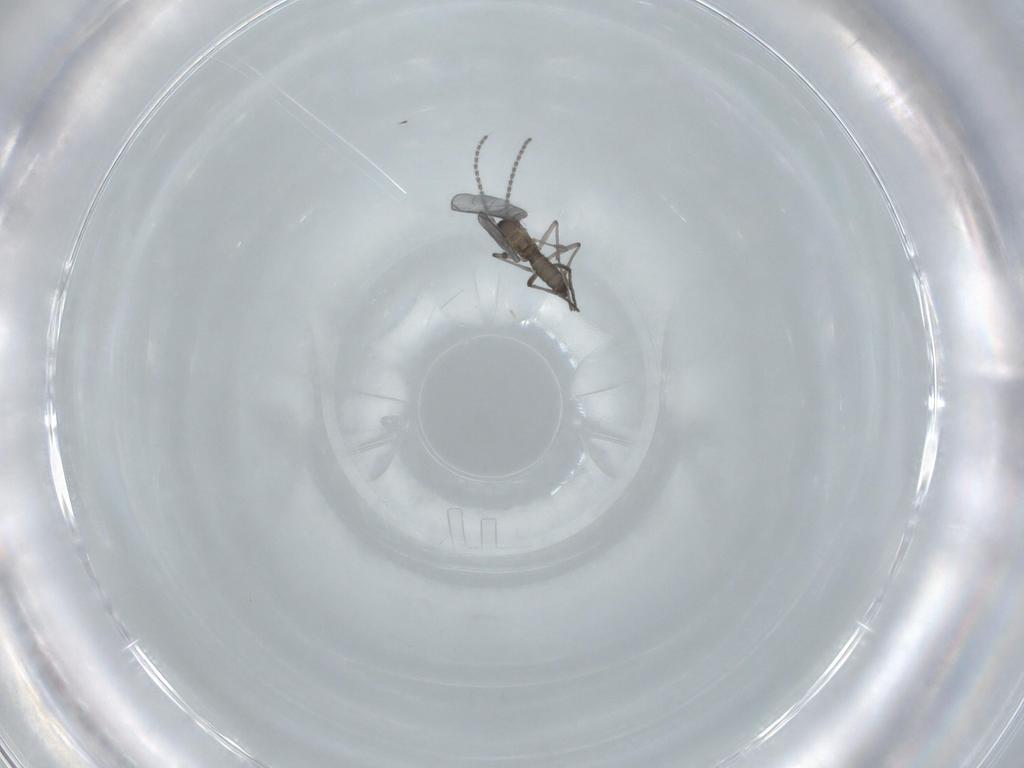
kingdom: Animalia
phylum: Arthropoda
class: Insecta
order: Diptera
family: Sciaridae
